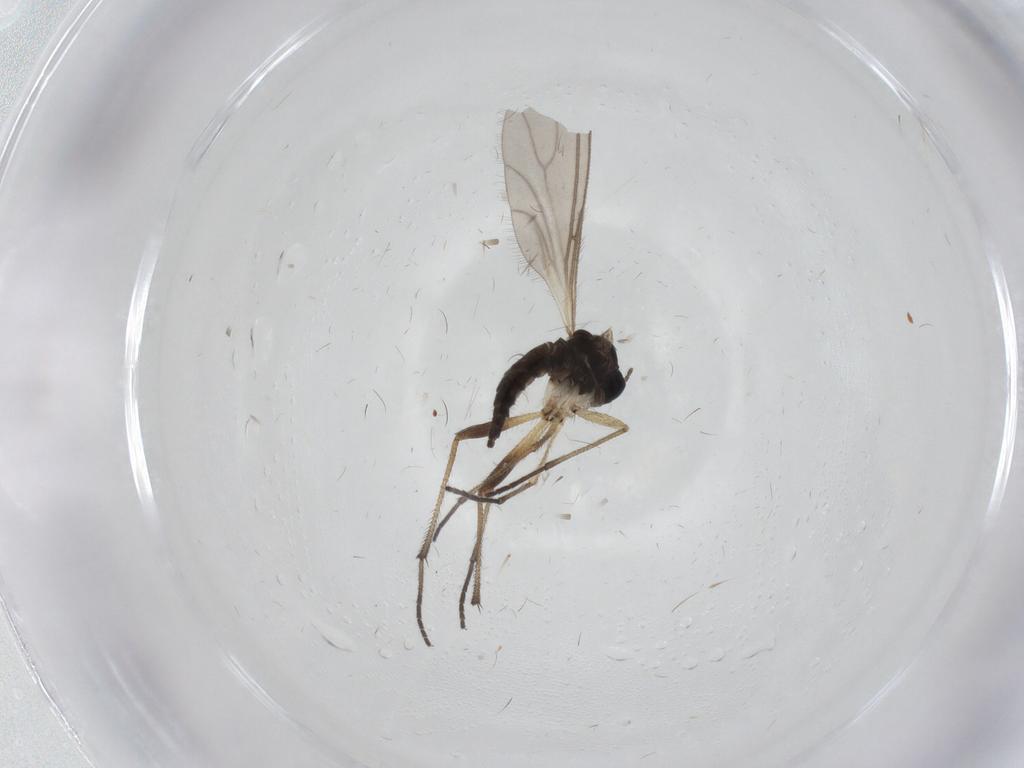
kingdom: Animalia
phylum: Arthropoda
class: Insecta
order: Diptera
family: Sciaridae
